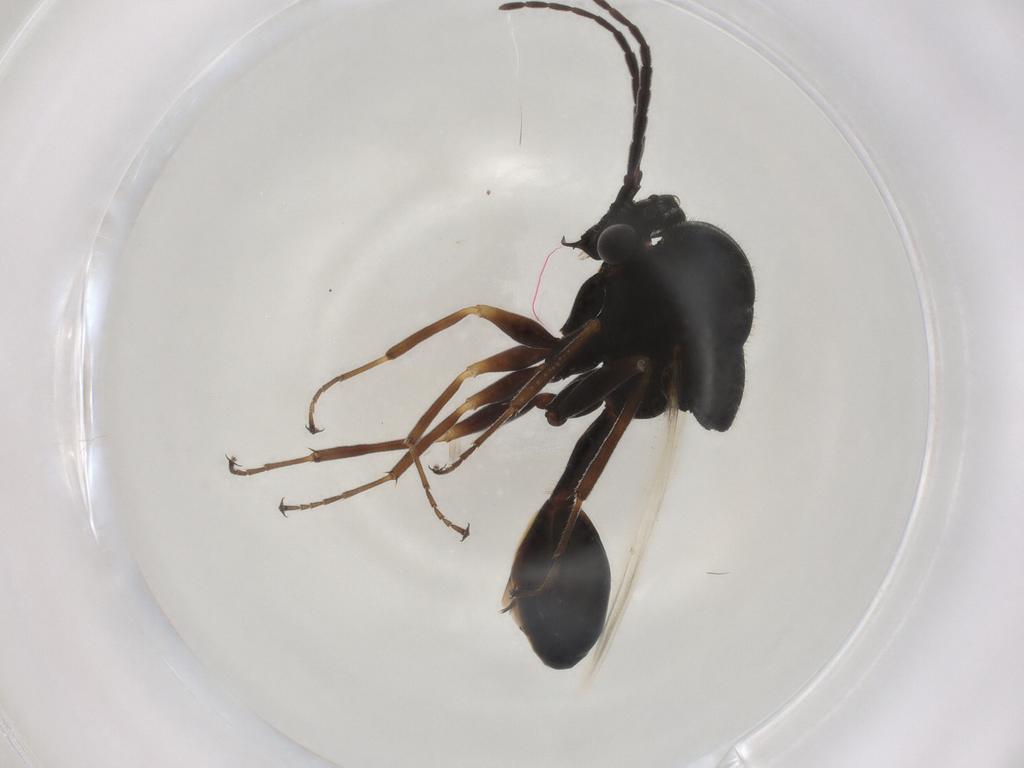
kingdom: Animalia
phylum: Arthropoda
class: Insecta
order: Hymenoptera
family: Eucharitidae
